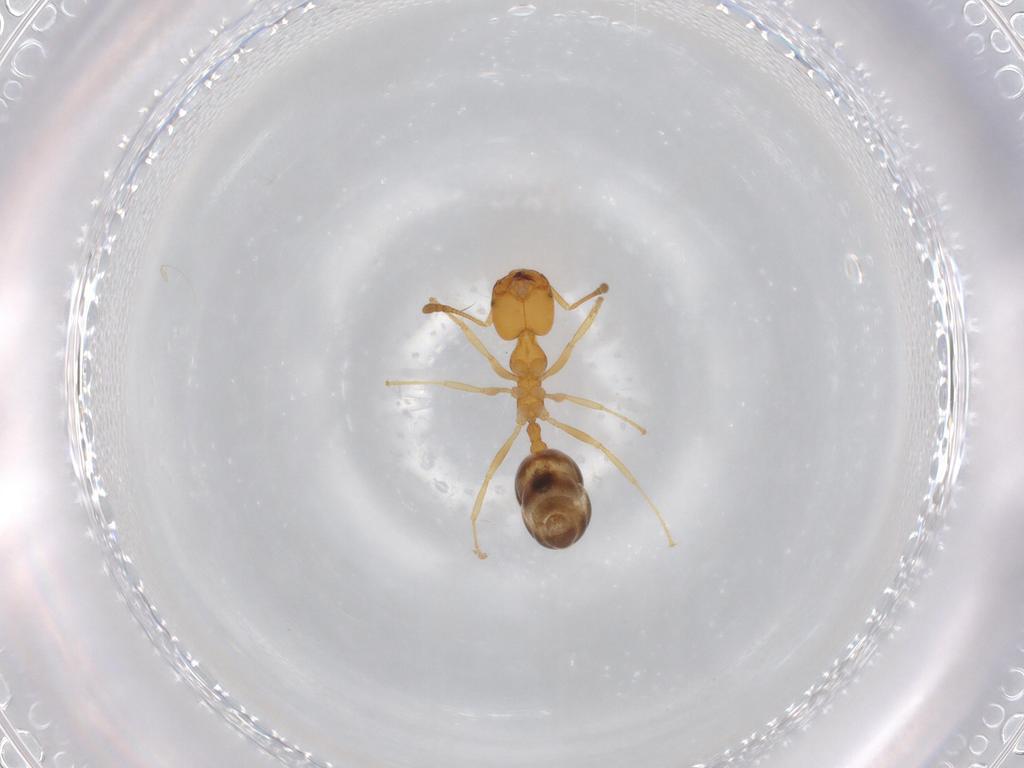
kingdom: Animalia
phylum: Arthropoda
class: Insecta
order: Hymenoptera
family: Formicidae
